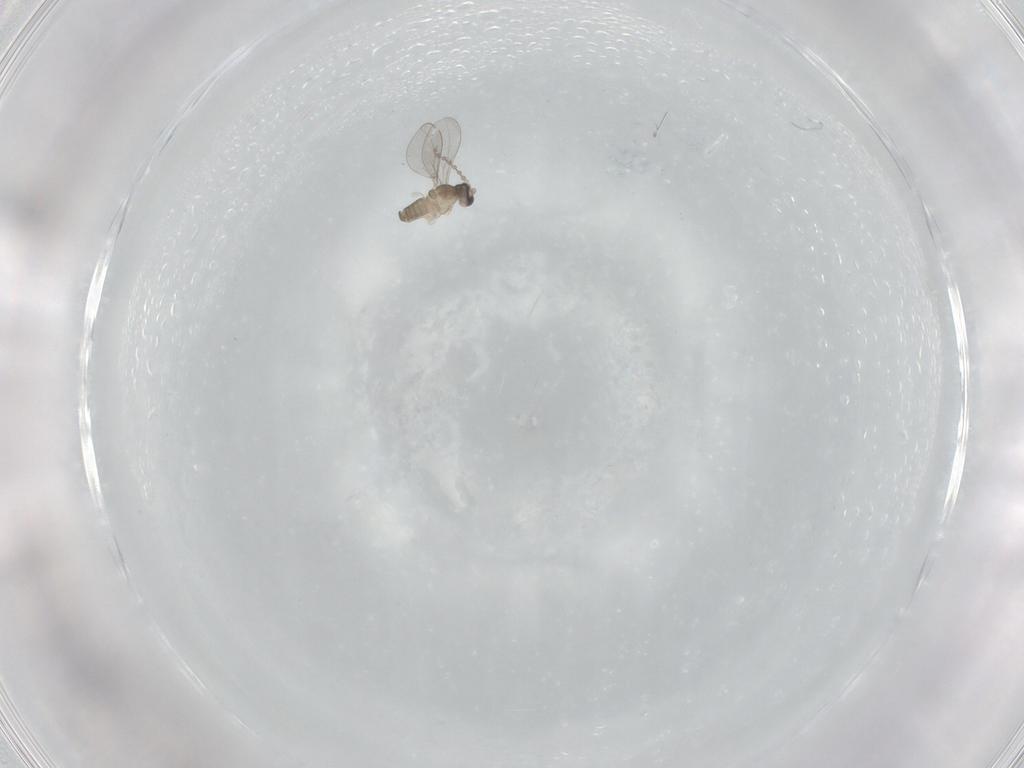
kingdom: Animalia
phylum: Arthropoda
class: Insecta
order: Diptera
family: Cecidomyiidae
